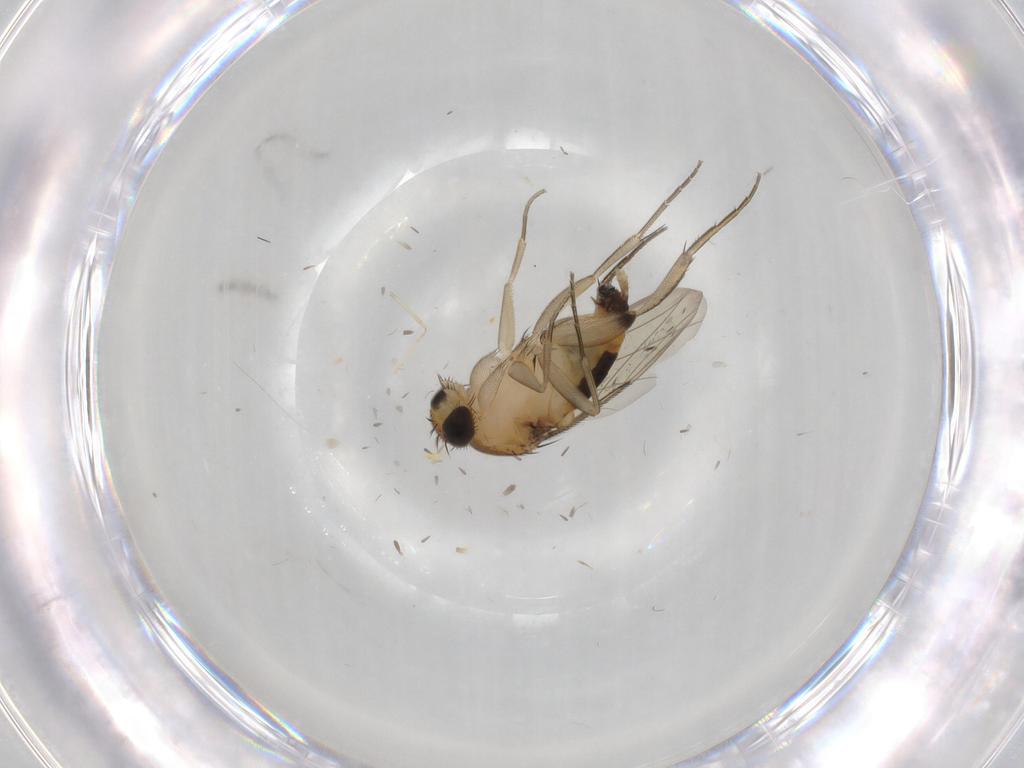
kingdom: Animalia
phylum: Arthropoda
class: Insecta
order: Diptera
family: Phoridae
